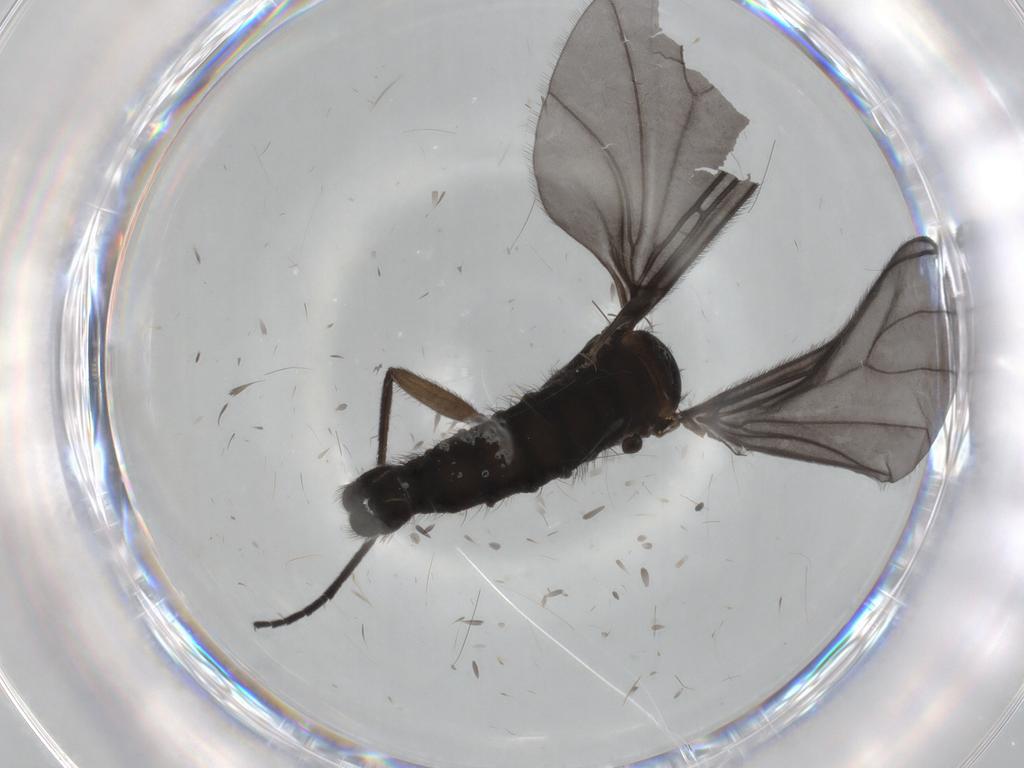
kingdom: Animalia
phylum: Arthropoda
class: Insecta
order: Diptera
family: Sciaridae
